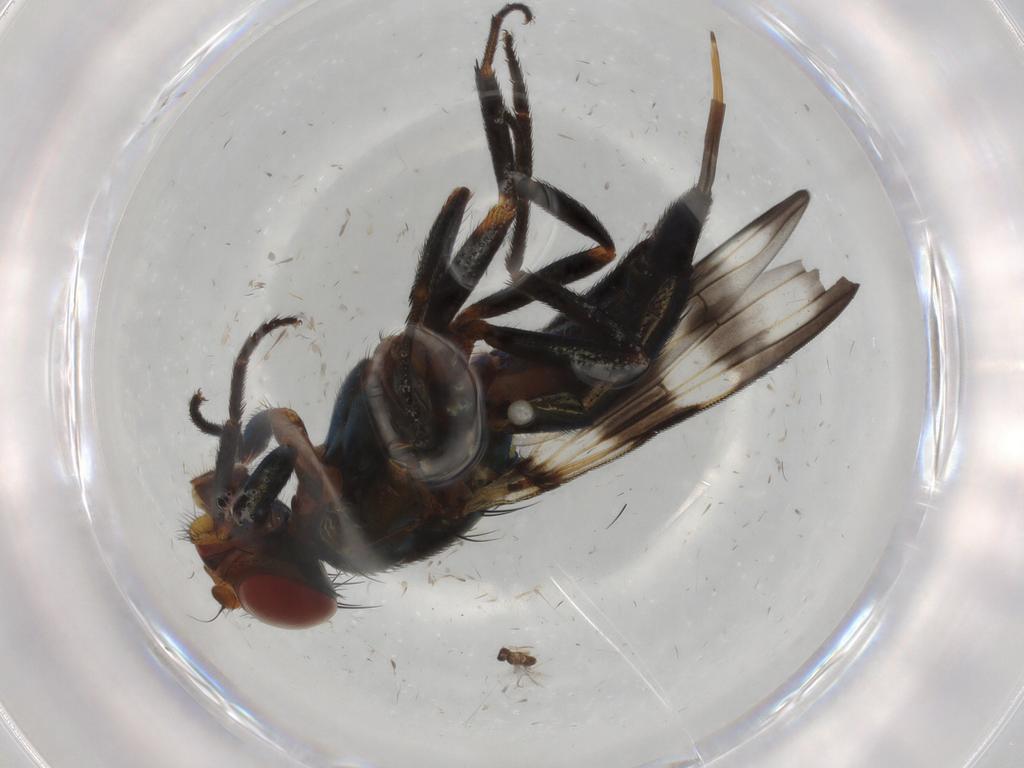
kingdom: Animalia
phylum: Arthropoda
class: Insecta
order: Diptera
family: Cecidomyiidae
